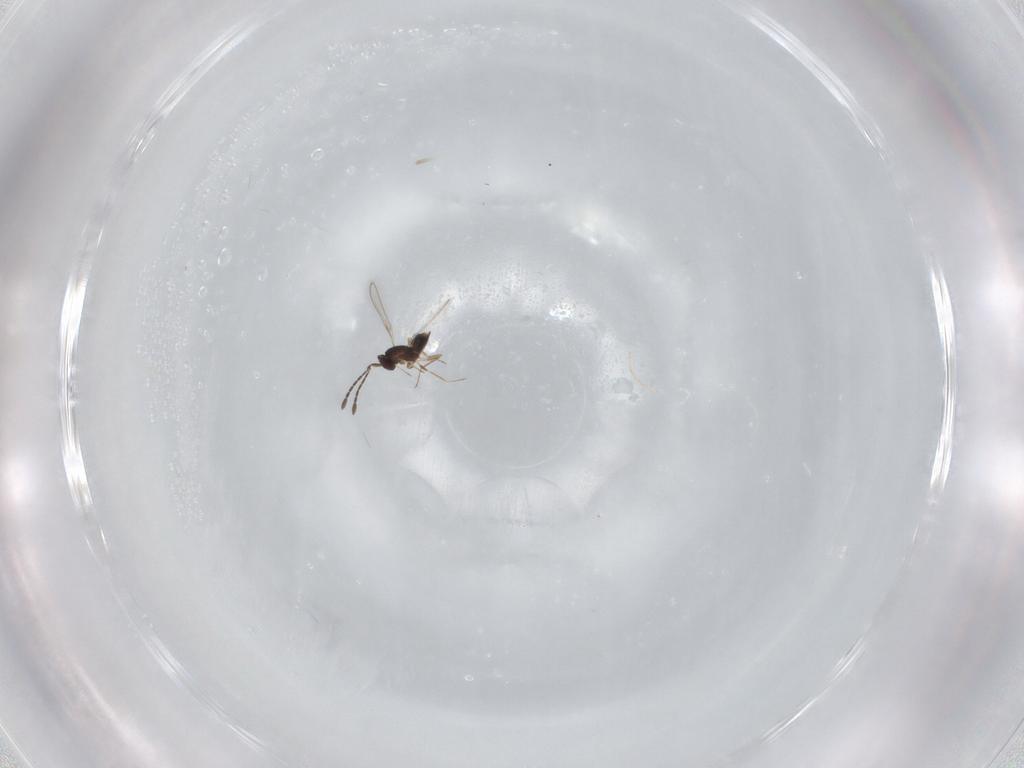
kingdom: Animalia
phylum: Arthropoda
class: Insecta
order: Hymenoptera
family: Mymaridae
